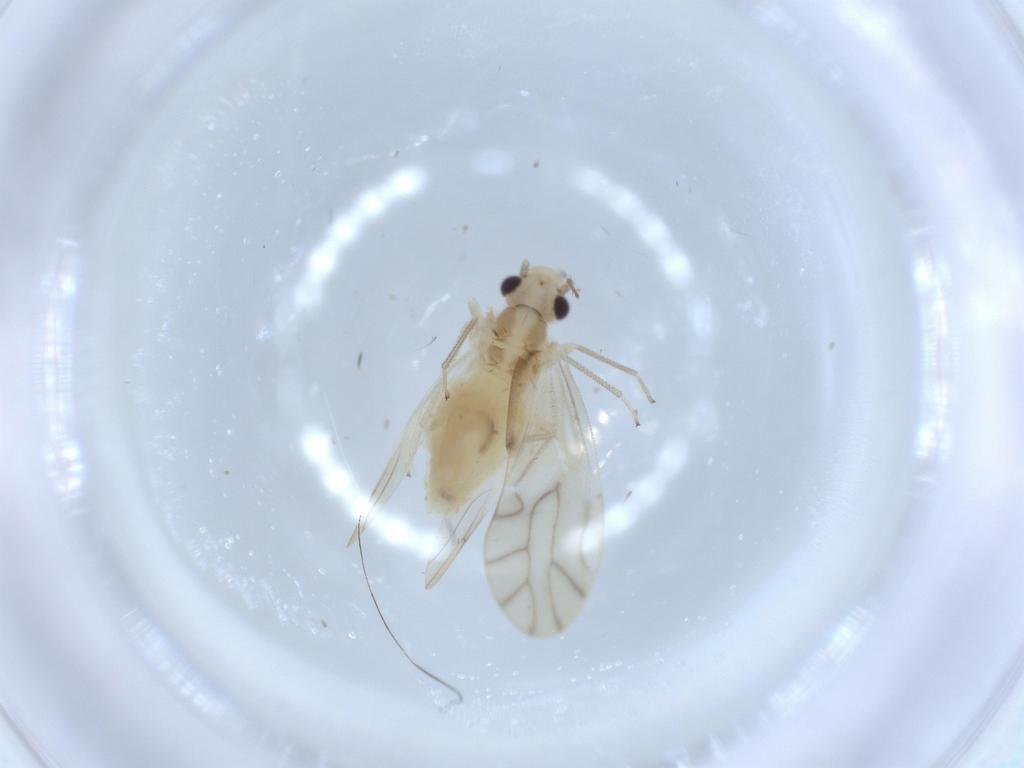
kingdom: Animalia
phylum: Arthropoda
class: Insecta
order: Psocodea
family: Caeciliusidae
